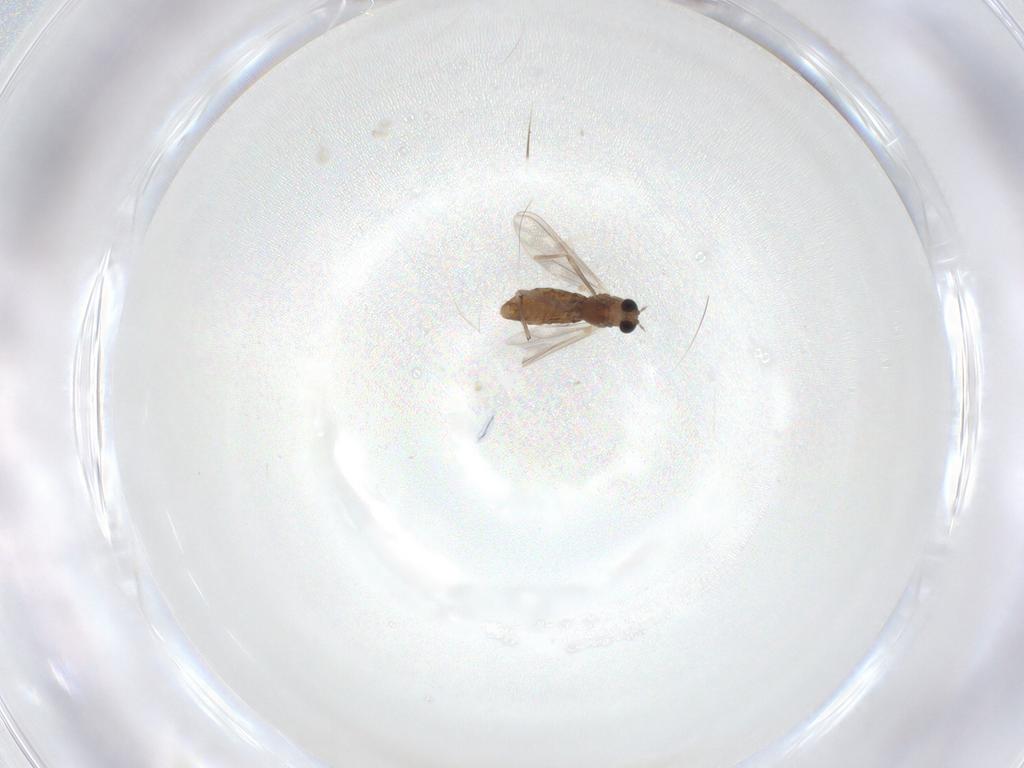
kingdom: Animalia
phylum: Arthropoda
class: Insecta
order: Diptera
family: Chironomidae
